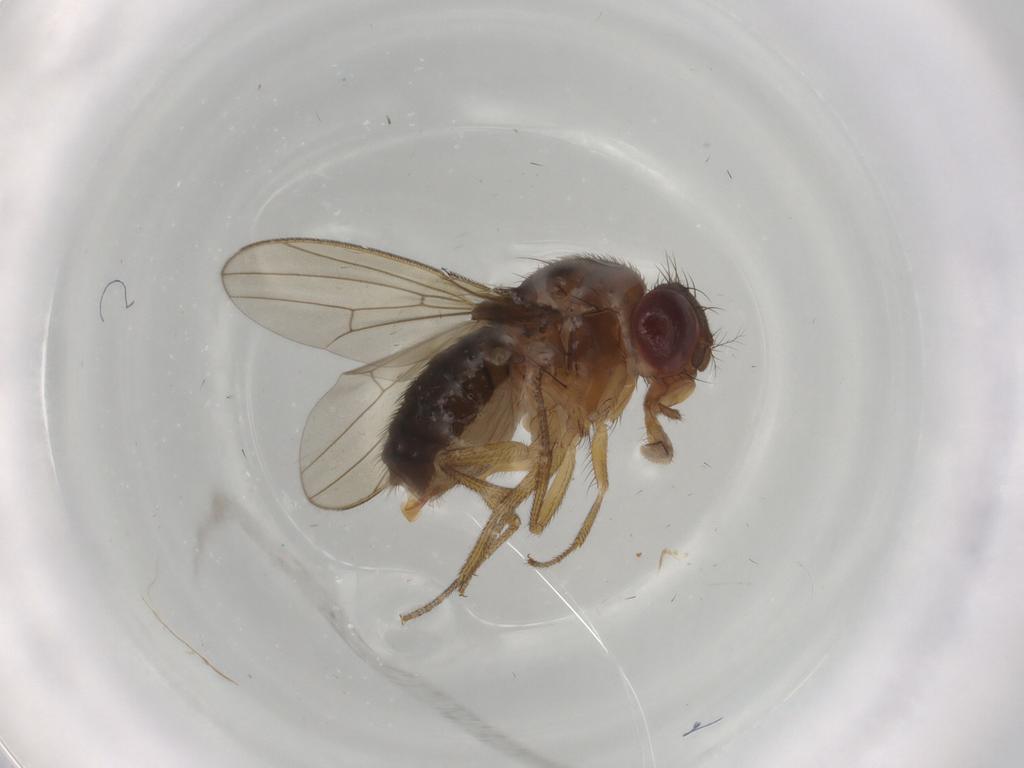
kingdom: Animalia
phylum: Arthropoda
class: Insecta
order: Diptera
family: Drosophilidae
